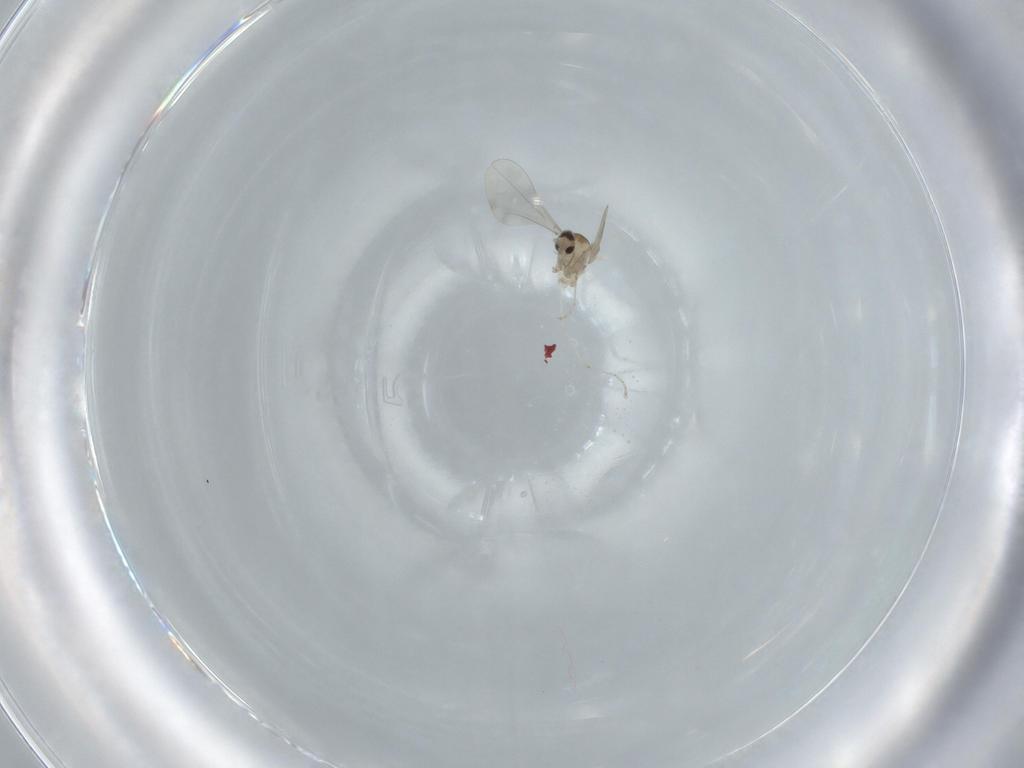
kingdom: Animalia
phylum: Arthropoda
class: Insecta
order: Diptera
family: Cecidomyiidae
